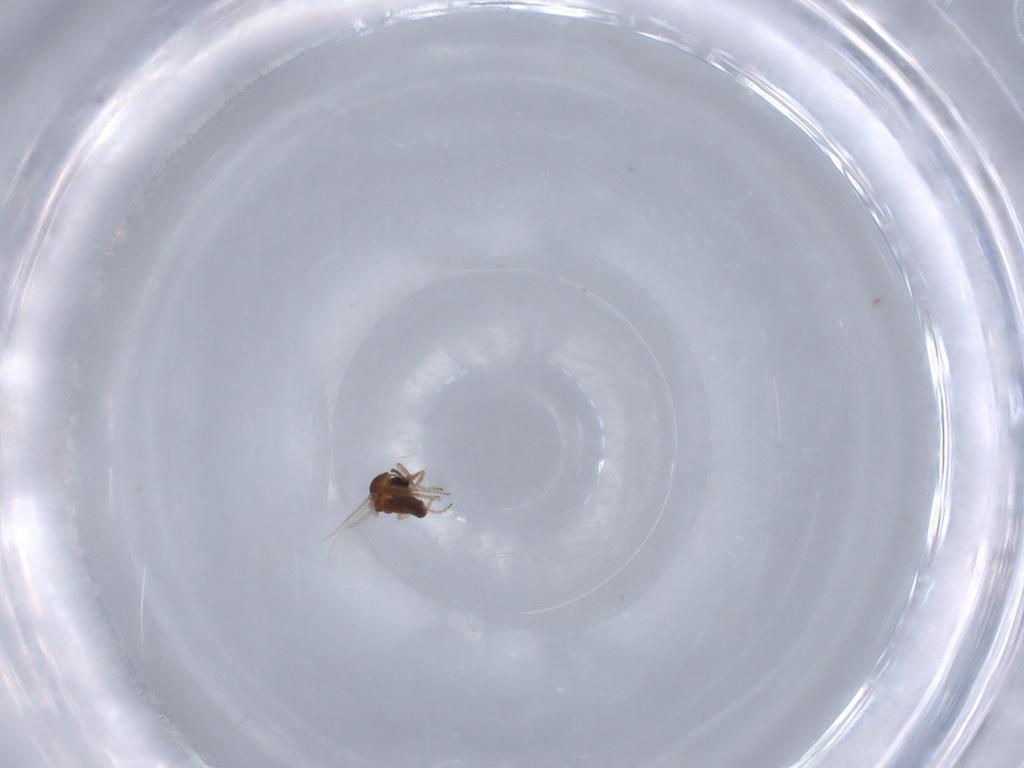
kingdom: Animalia
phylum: Arthropoda
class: Insecta
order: Diptera
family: Ceratopogonidae
